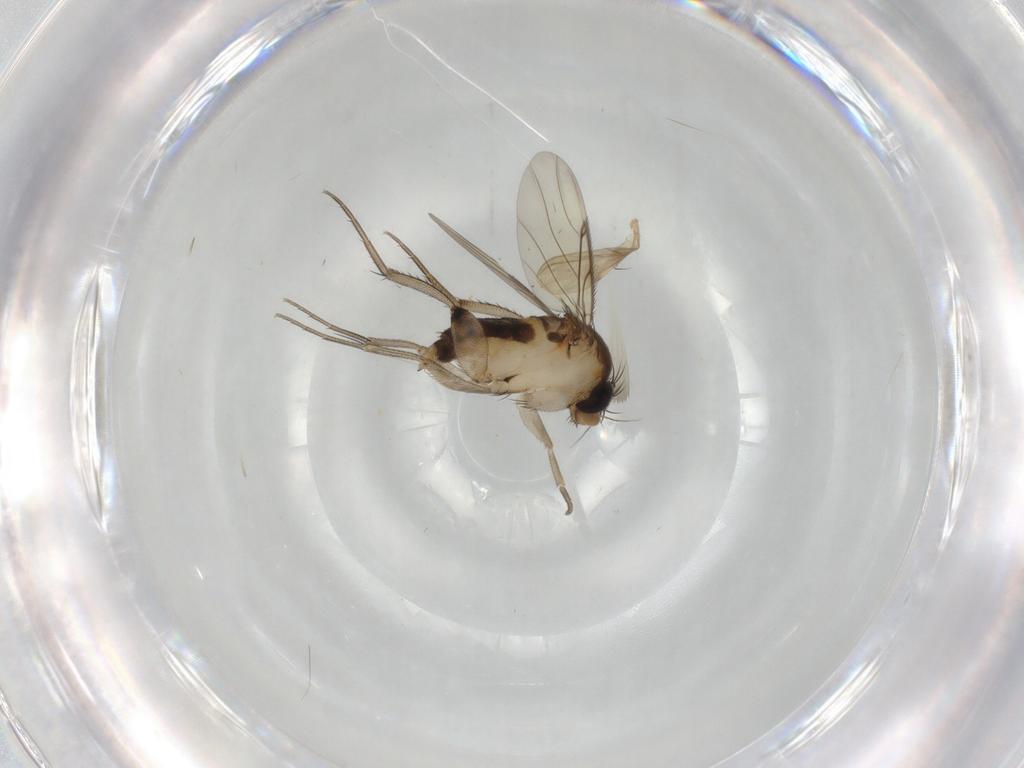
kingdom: Animalia
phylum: Arthropoda
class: Insecta
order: Diptera
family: Phoridae
